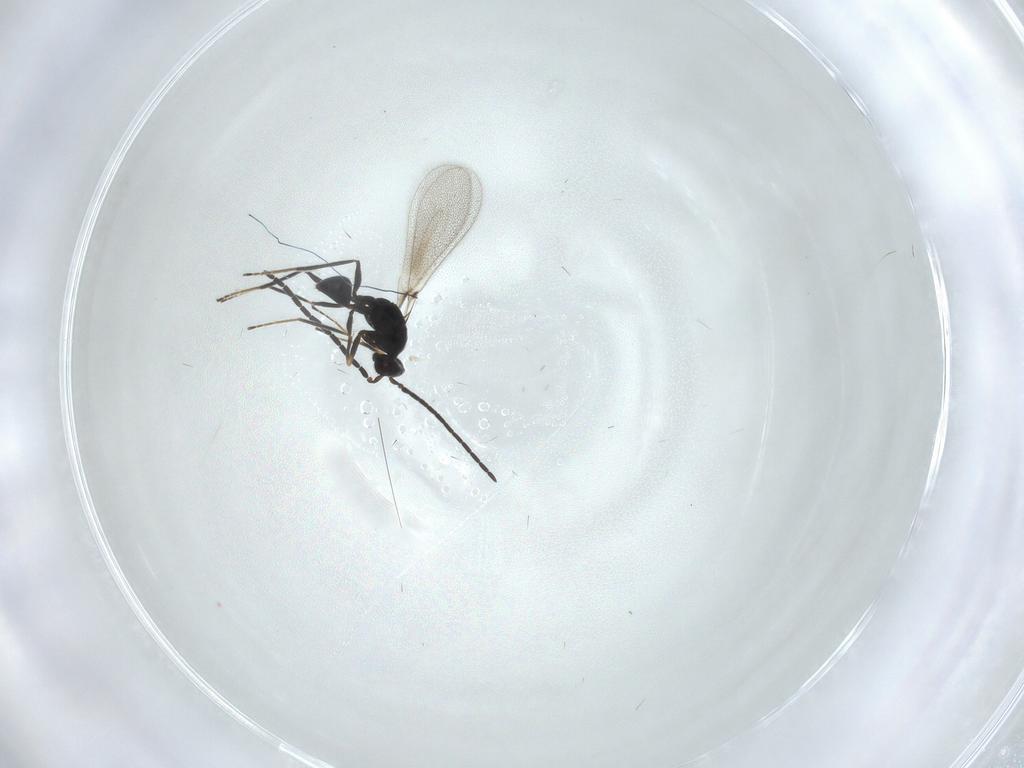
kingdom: Animalia
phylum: Arthropoda
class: Insecta
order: Hymenoptera
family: Mymaridae
